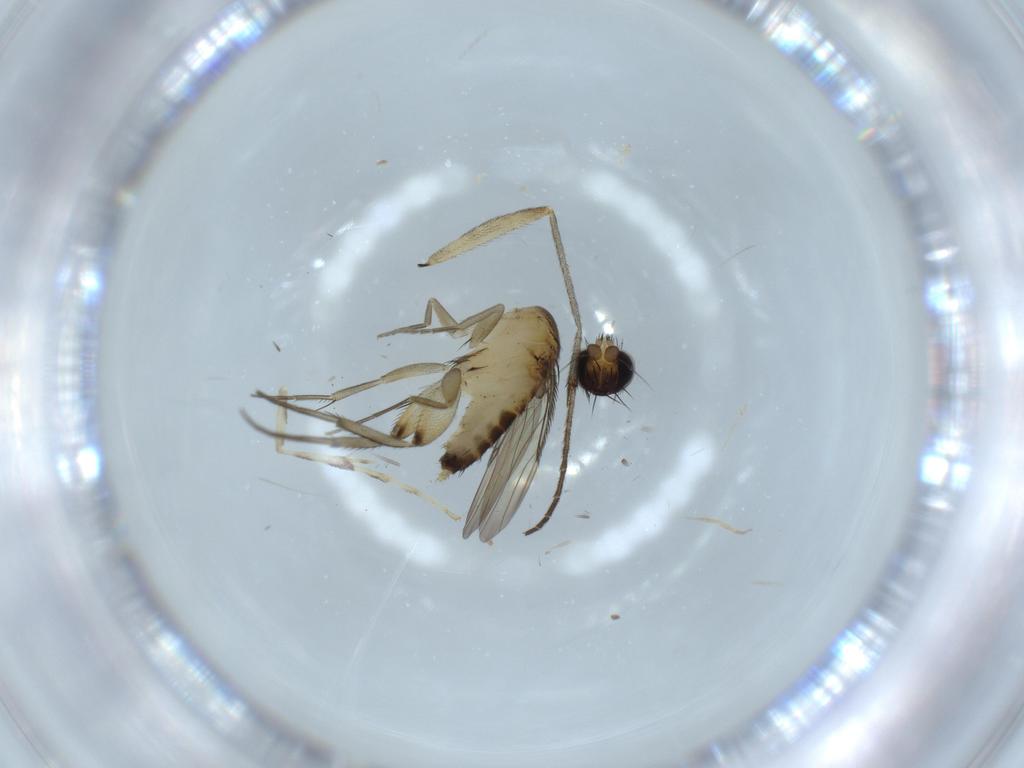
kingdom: Animalia
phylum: Arthropoda
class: Insecta
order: Diptera
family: Phoridae
